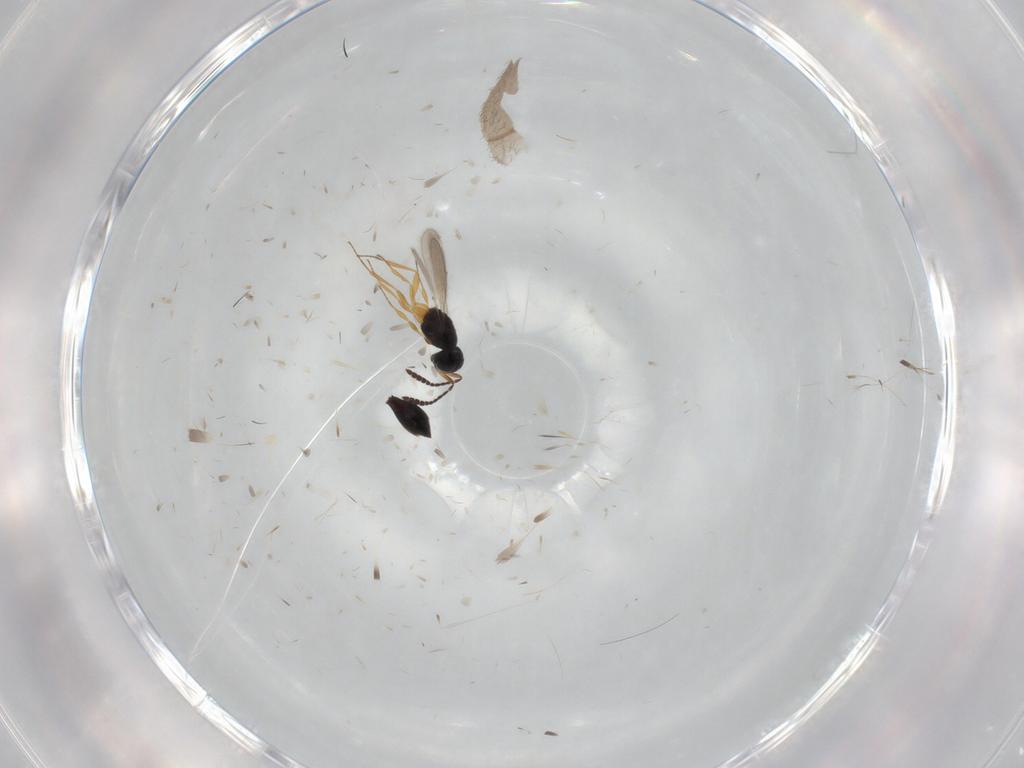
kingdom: Animalia
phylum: Arthropoda
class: Insecta
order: Hymenoptera
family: Scelionidae
